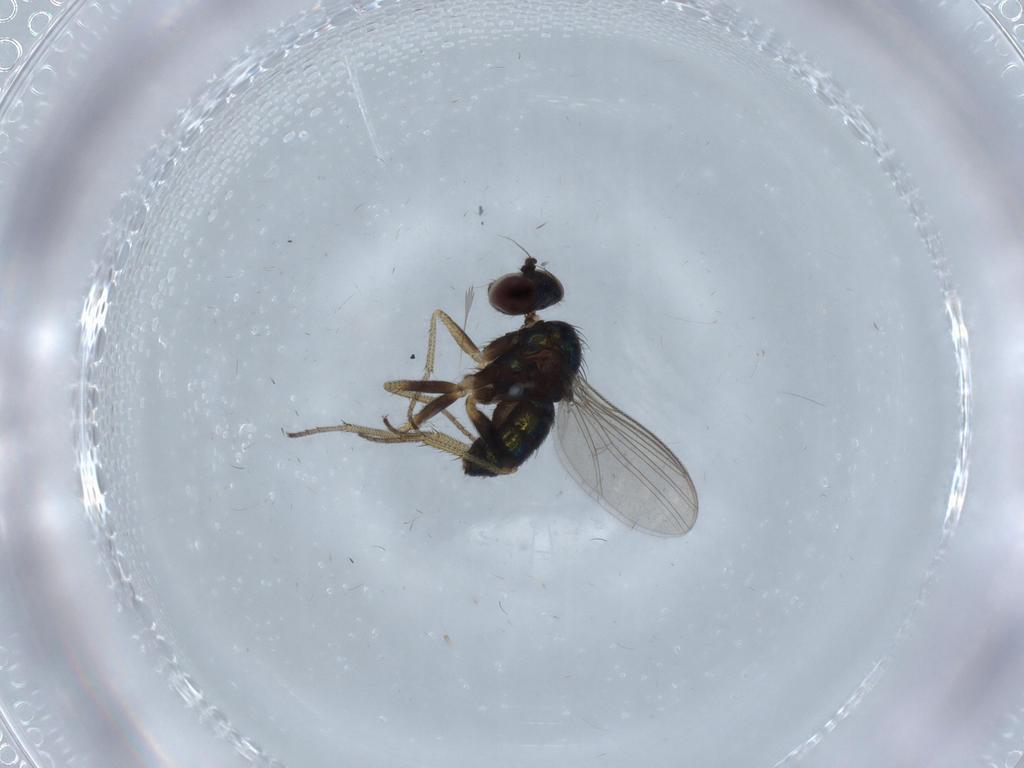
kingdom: Animalia
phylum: Arthropoda
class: Insecta
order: Diptera
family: Chironomidae
